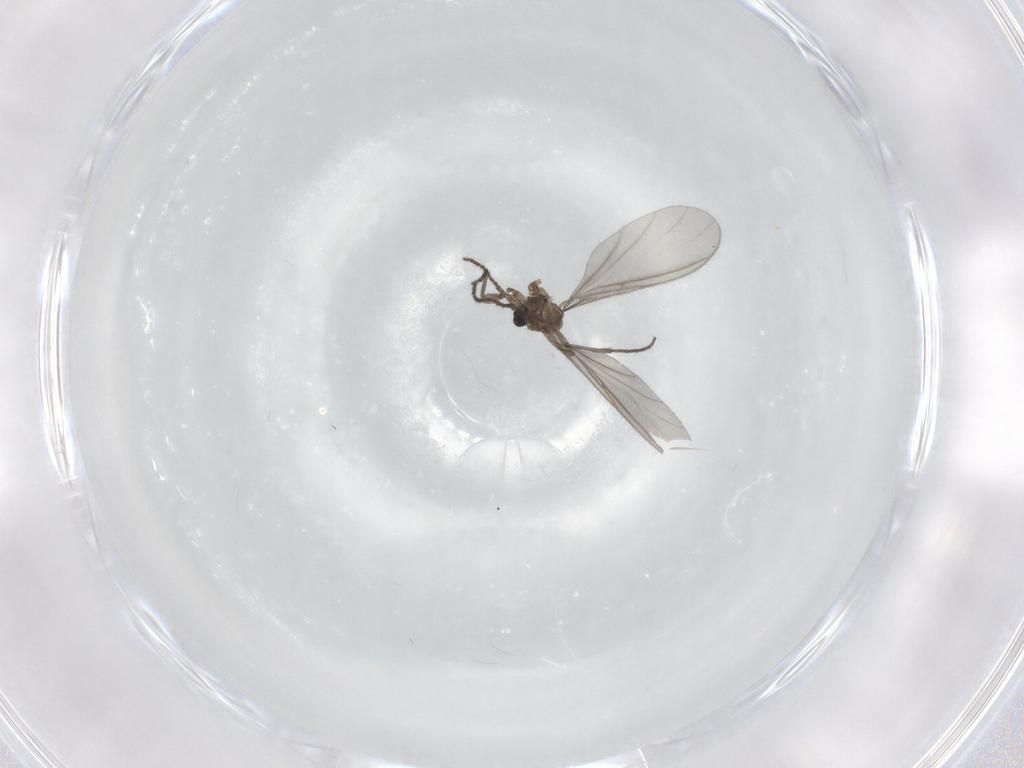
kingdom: Animalia
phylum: Arthropoda
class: Insecta
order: Diptera
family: Sciaridae
